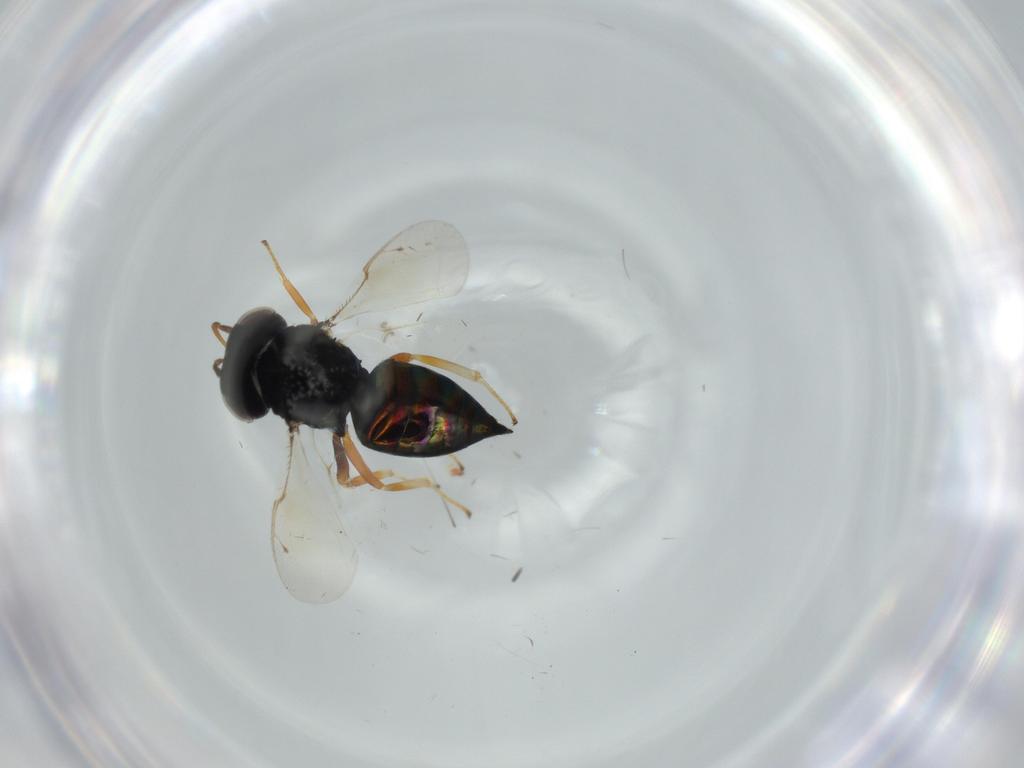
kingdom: Animalia
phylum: Arthropoda
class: Insecta
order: Hymenoptera
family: Pteromalidae
